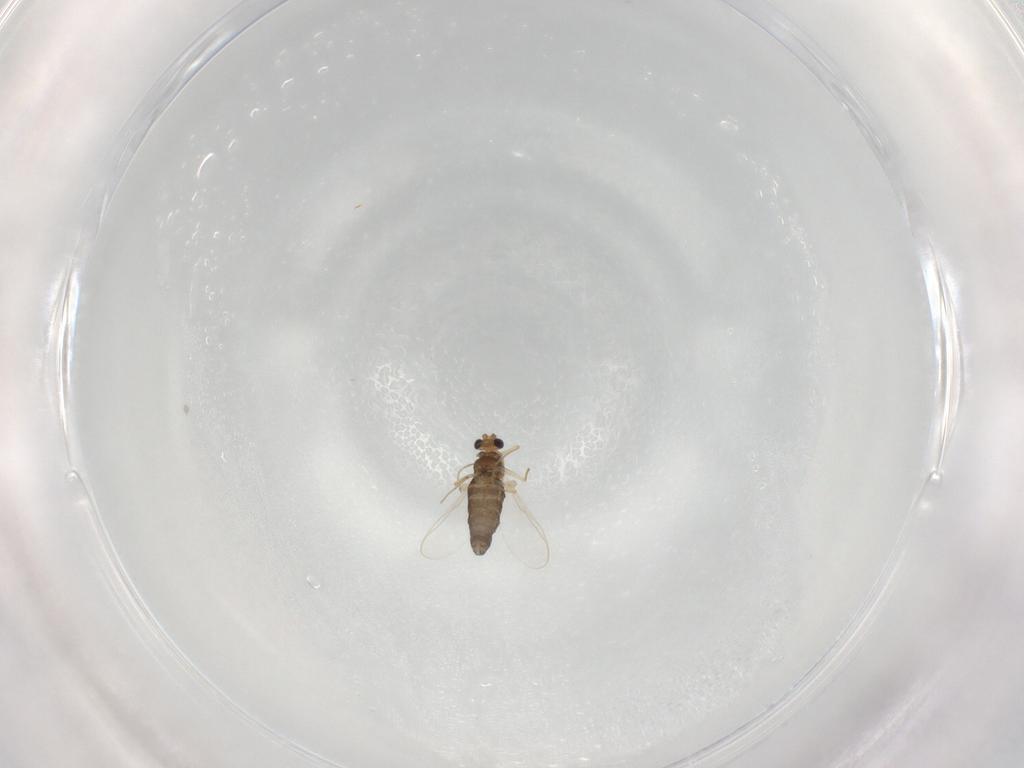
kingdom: Animalia
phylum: Arthropoda
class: Insecta
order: Diptera
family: Chironomidae
